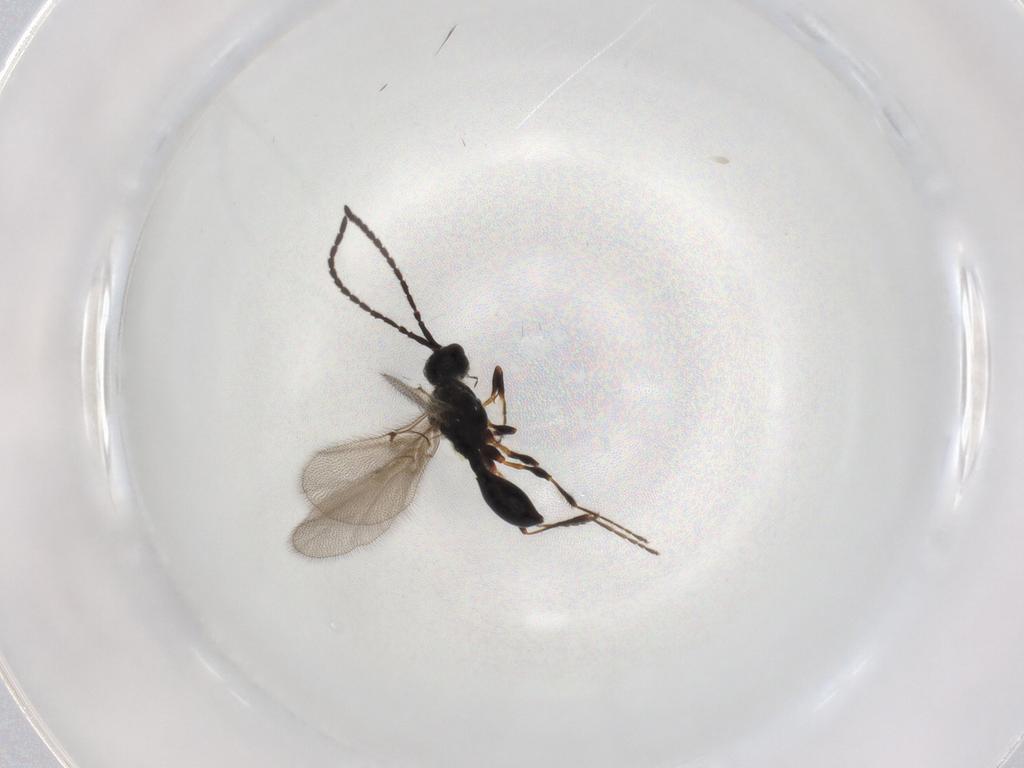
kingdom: Animalia
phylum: Arthropoda
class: Insecta
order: Hymenoptera
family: Diapriidae
